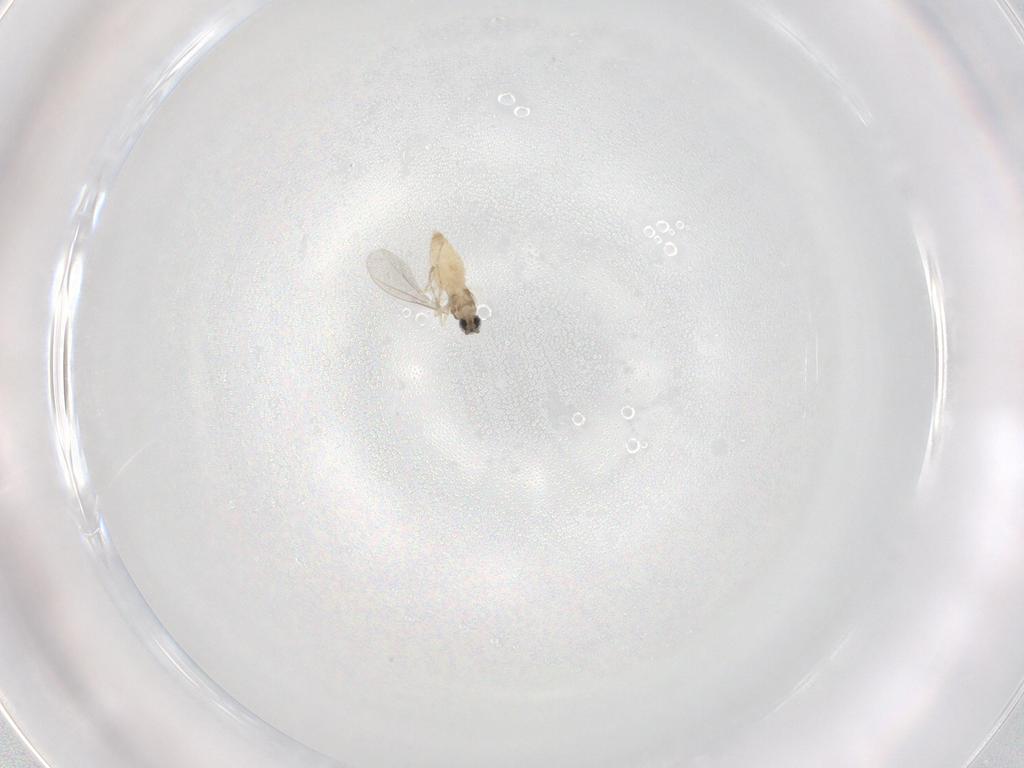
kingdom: Animalia
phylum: Arthropoda
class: Insecta
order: Diptera
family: Cecidomyiidae
